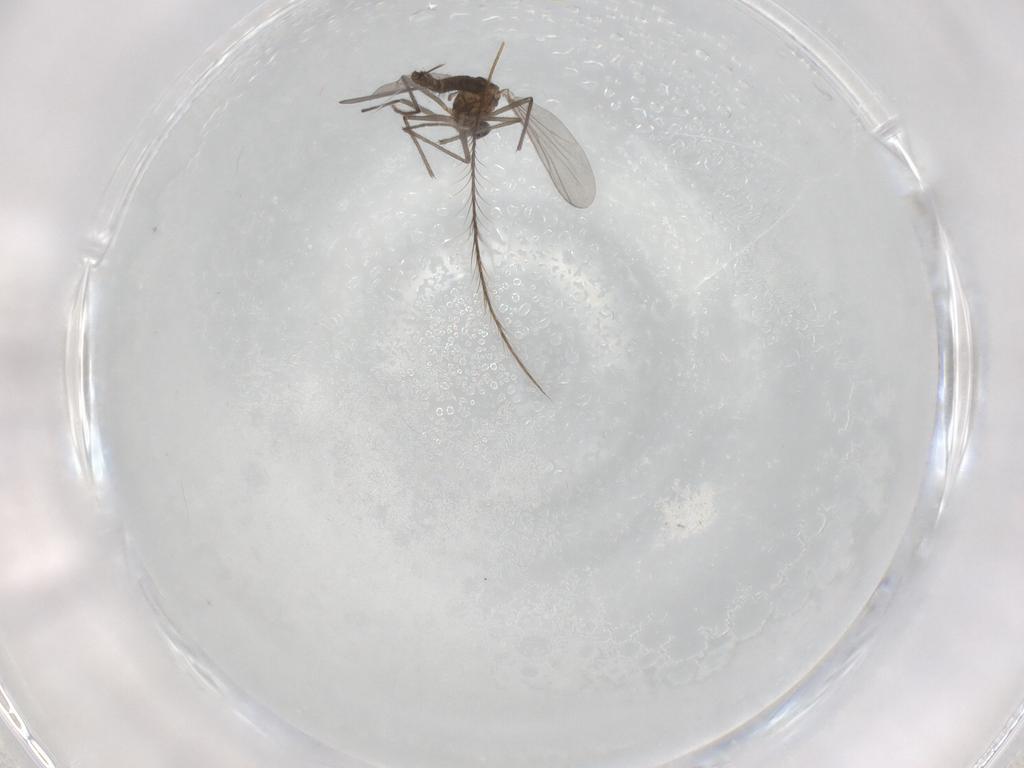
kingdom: Animalia
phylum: Arthropoda
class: Insecta
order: Diptera
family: Chironomidae
